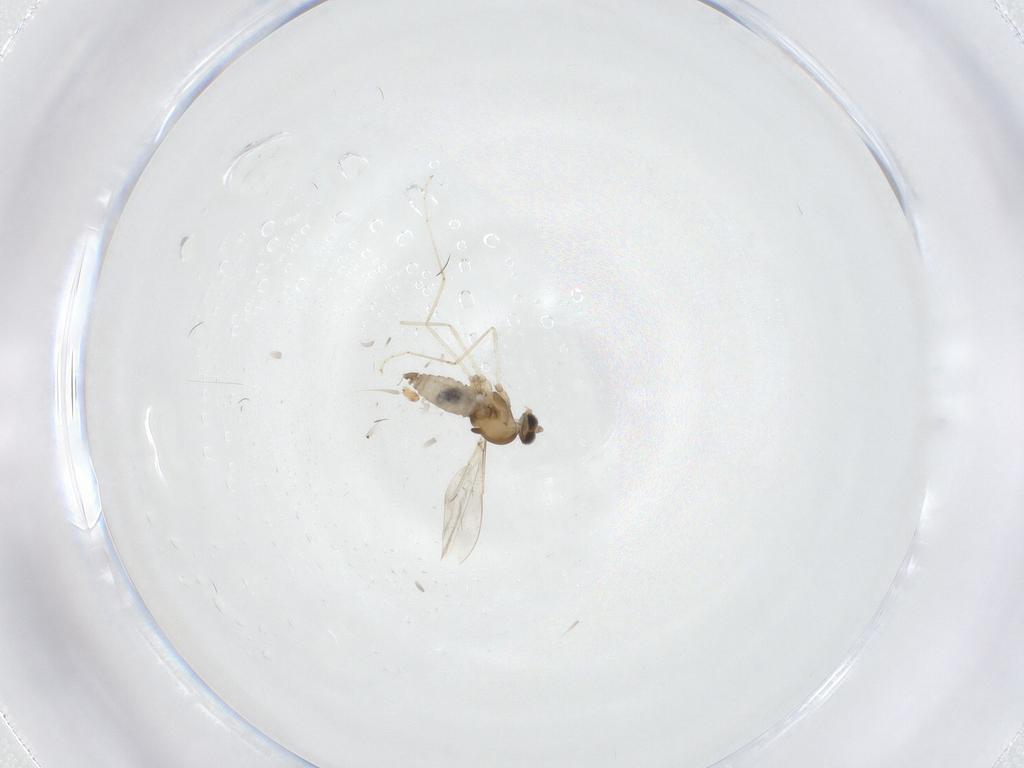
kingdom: Animalia
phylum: Arthropoda
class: Insecta
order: Diptera
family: Cecidomyiidae
